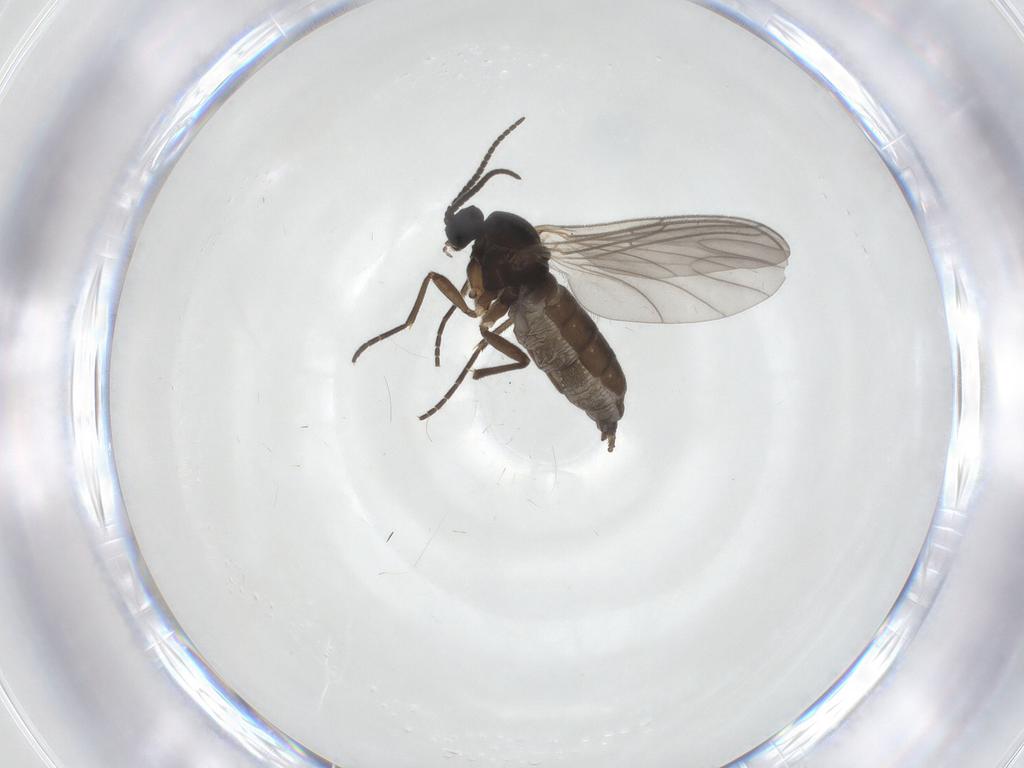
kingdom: Animalia
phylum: Arthropoda
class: Insecta
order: Diptera
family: Sciaridae
